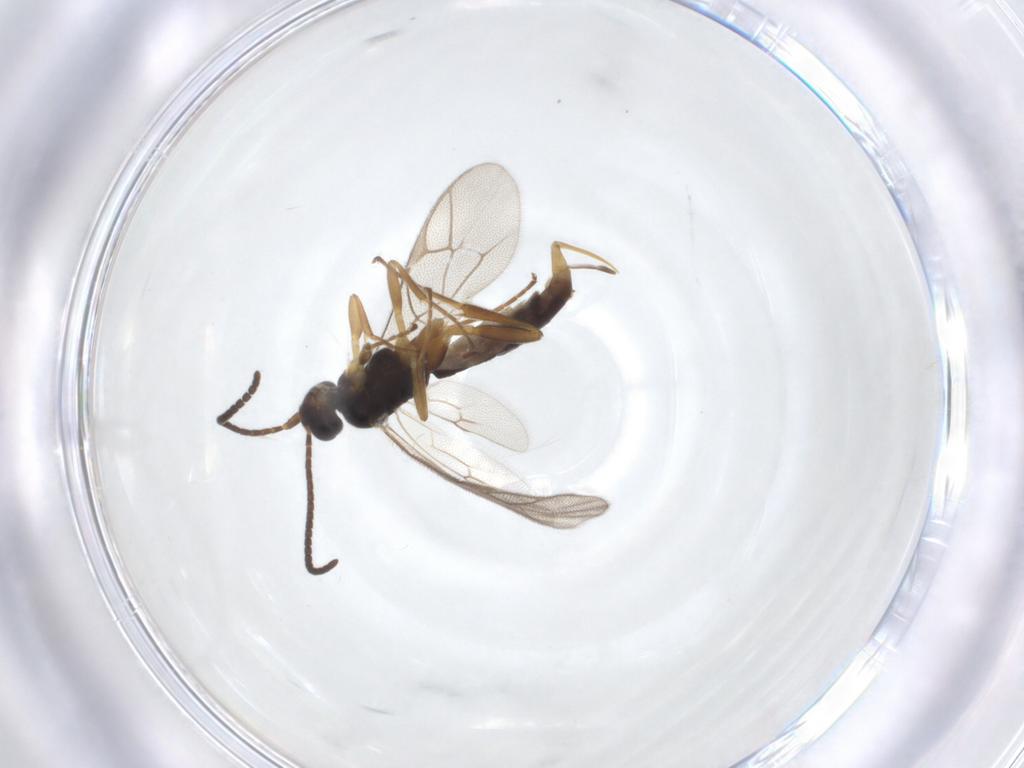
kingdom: Animalia
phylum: Arthropoda
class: Insecta
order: Hymenoptera
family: Ichneumonidae
